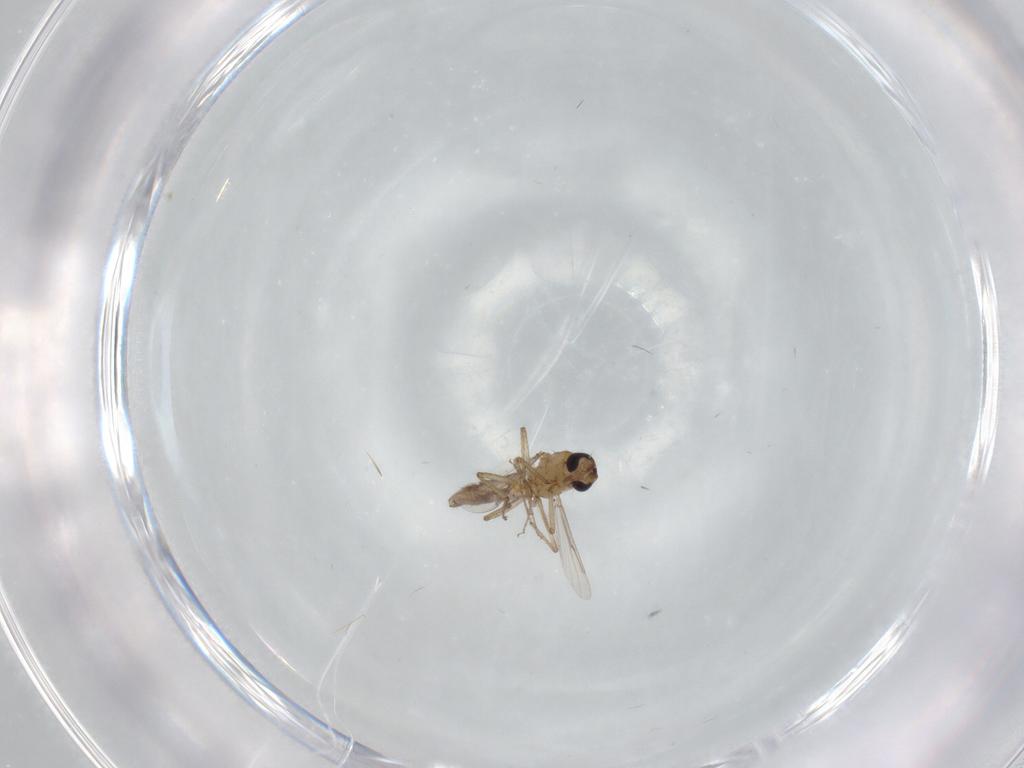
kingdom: Animalia
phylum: Arthropoda
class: Insecta
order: Diptera
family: Ceratopogonidae
